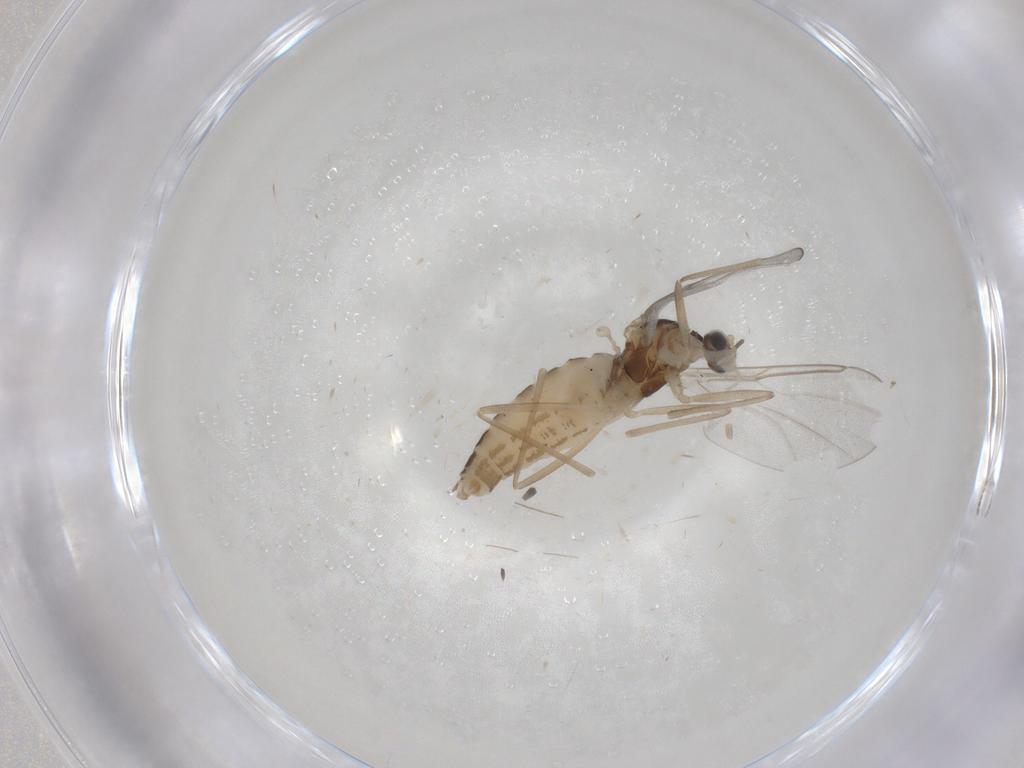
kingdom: Animalia
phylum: Arthropoda
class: Insecta
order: Diptera
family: Cecidomyiidae
